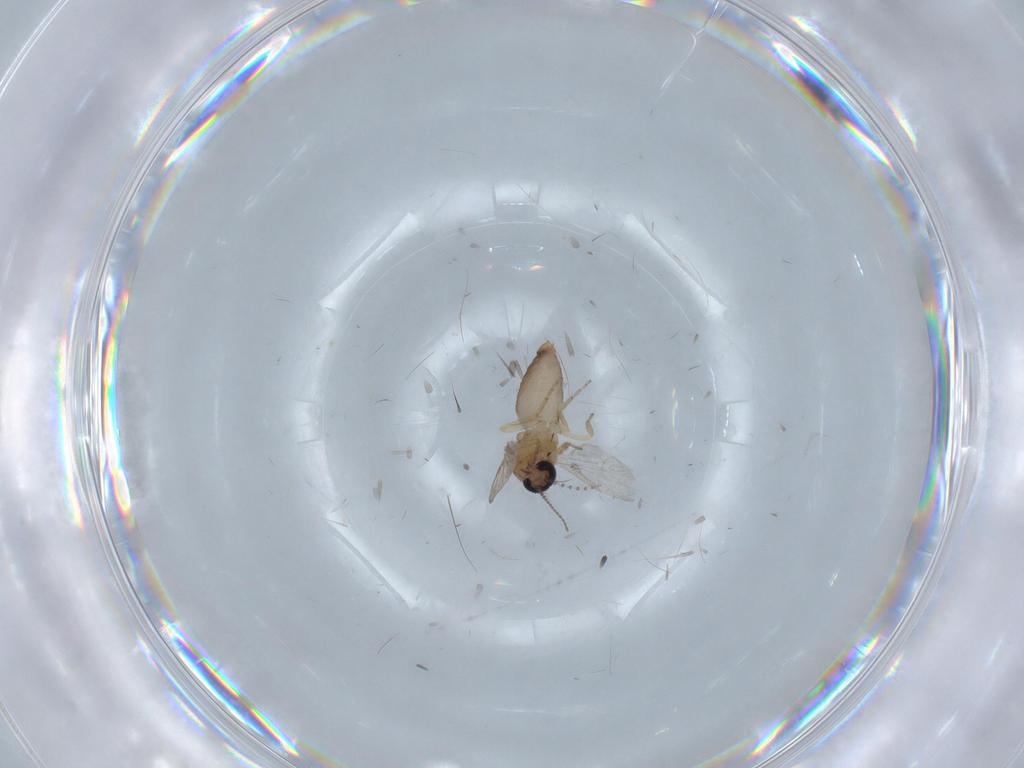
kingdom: Animalia
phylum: Arthropoda
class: Insecta
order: Diptera
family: Ceratopogonidae
